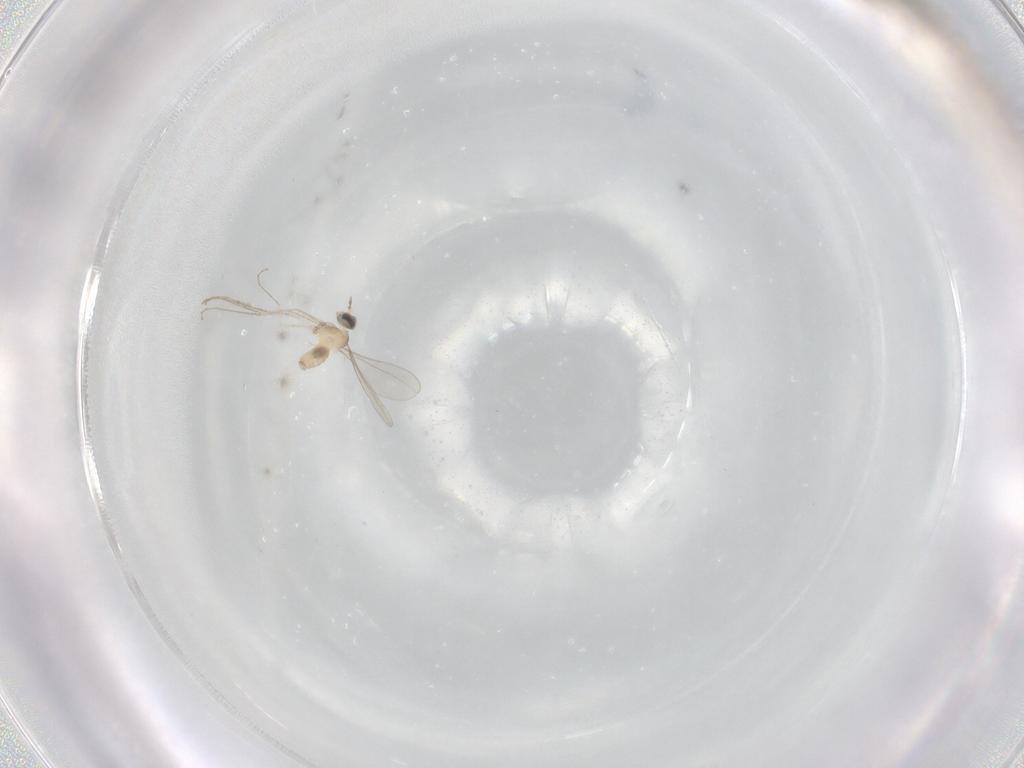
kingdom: Animalia
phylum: Arthropoda
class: Insecta
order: Diptera
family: Cecidomyiidae
